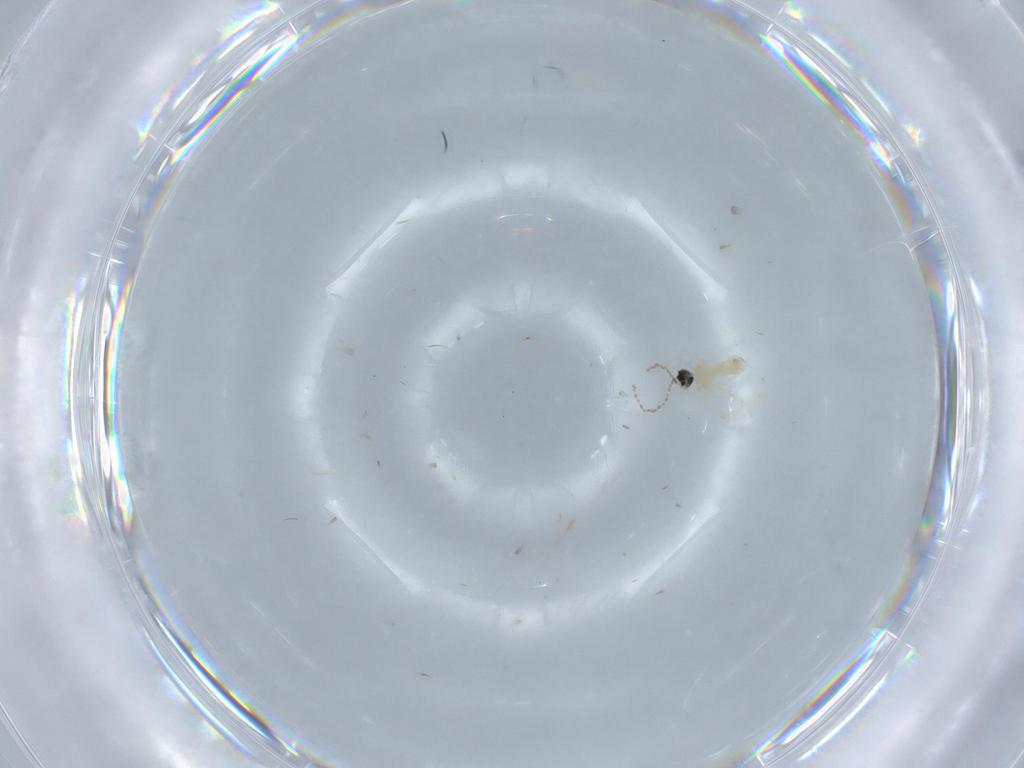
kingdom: Animalia
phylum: Arthropoda
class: Insecta
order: Diptera
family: Cecidomyiidae
